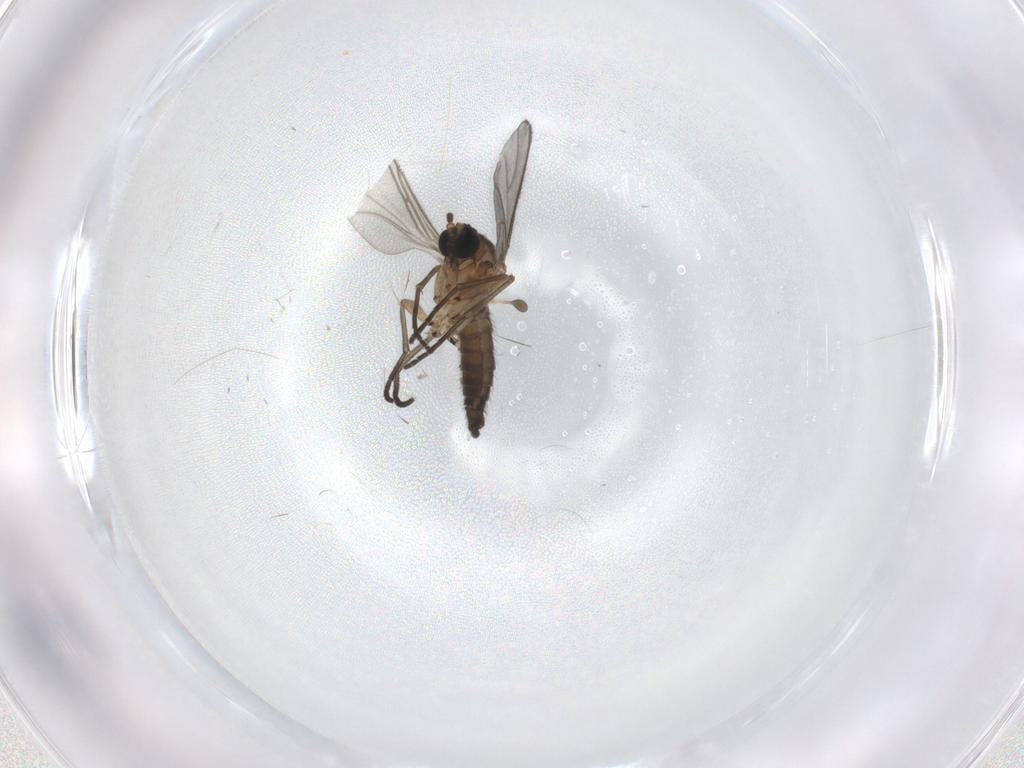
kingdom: Animalia
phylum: Arthropoda
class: Insecta
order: Diptera
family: Sciaridae
